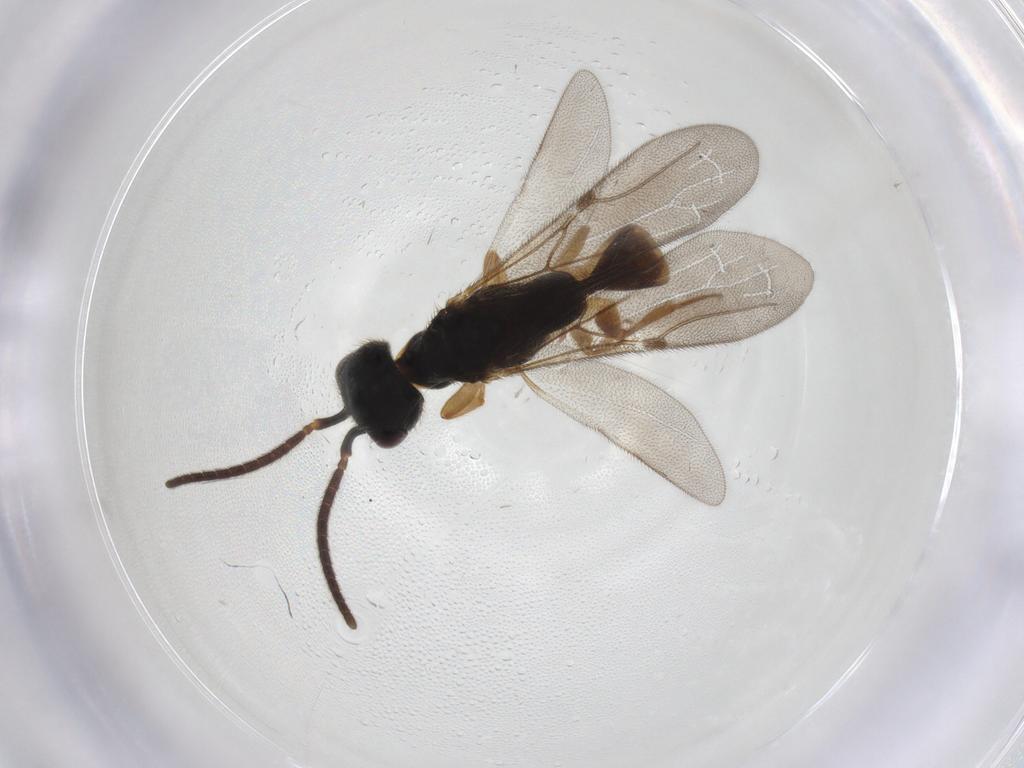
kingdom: Animalia
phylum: Arthropoda
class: Insecta
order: Hymenoptera
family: Bethylidae
